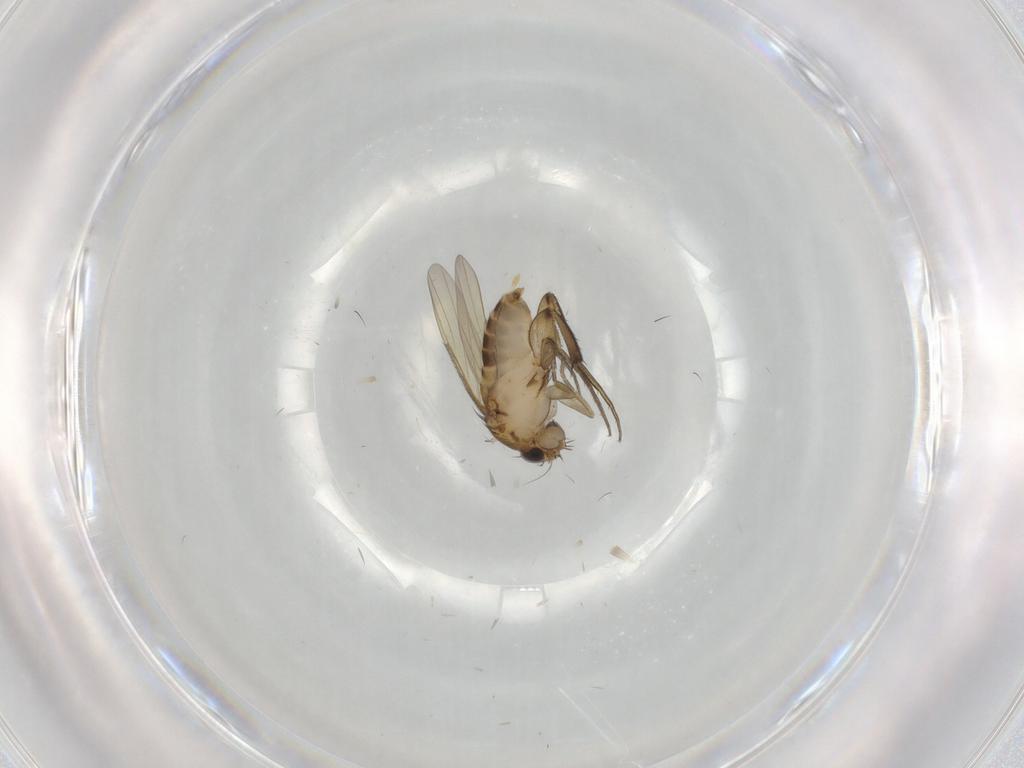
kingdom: Animalia
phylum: Arthropoda
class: Insecta
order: Diptera
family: Phoridae
